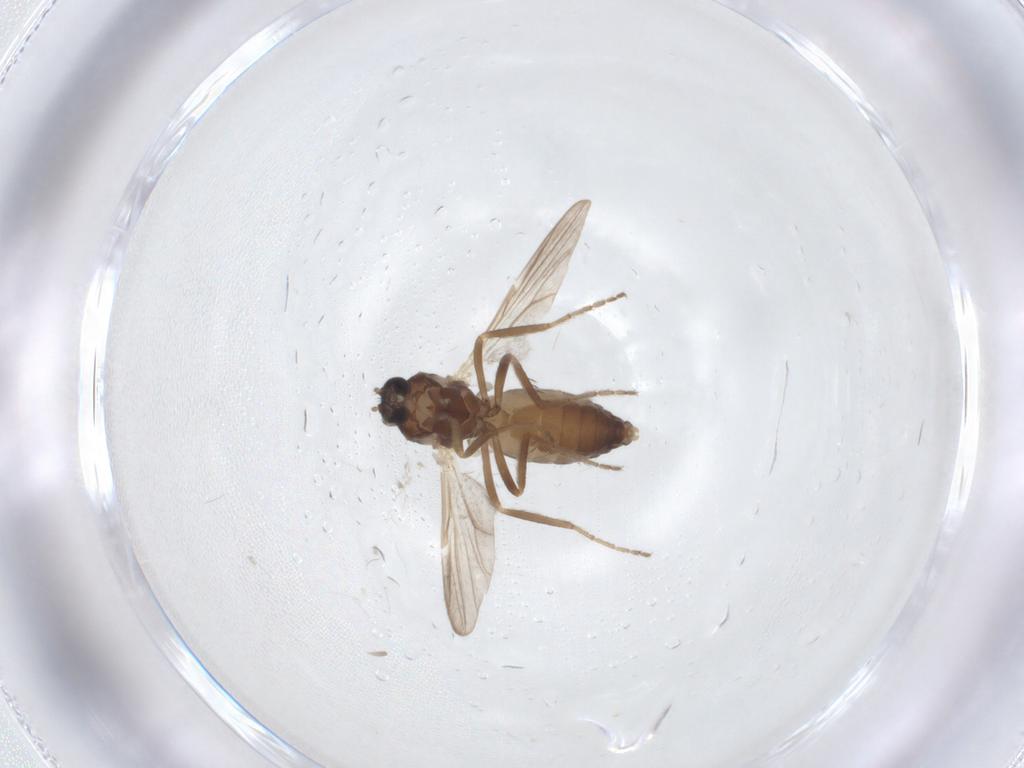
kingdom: Animalia
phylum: Arthropoda
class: Insecta
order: Diptera
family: Ceratopogonidae
